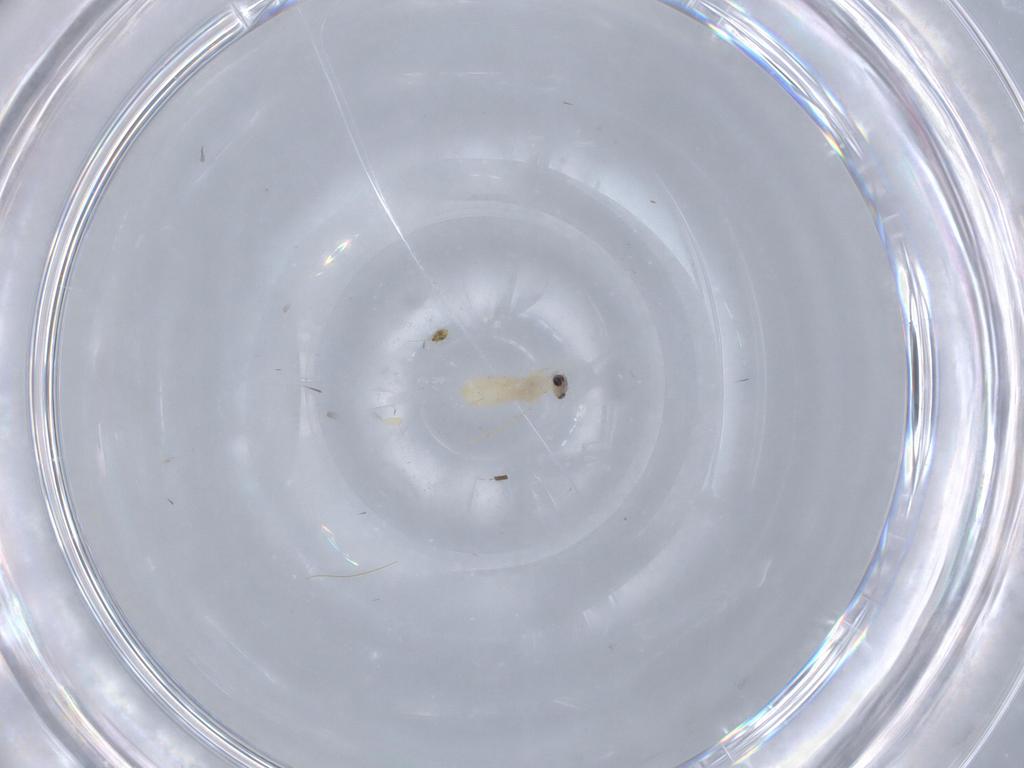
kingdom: Animalia
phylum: Arthropoda
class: Insecta
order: Diptera
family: Cecidomyiidae
